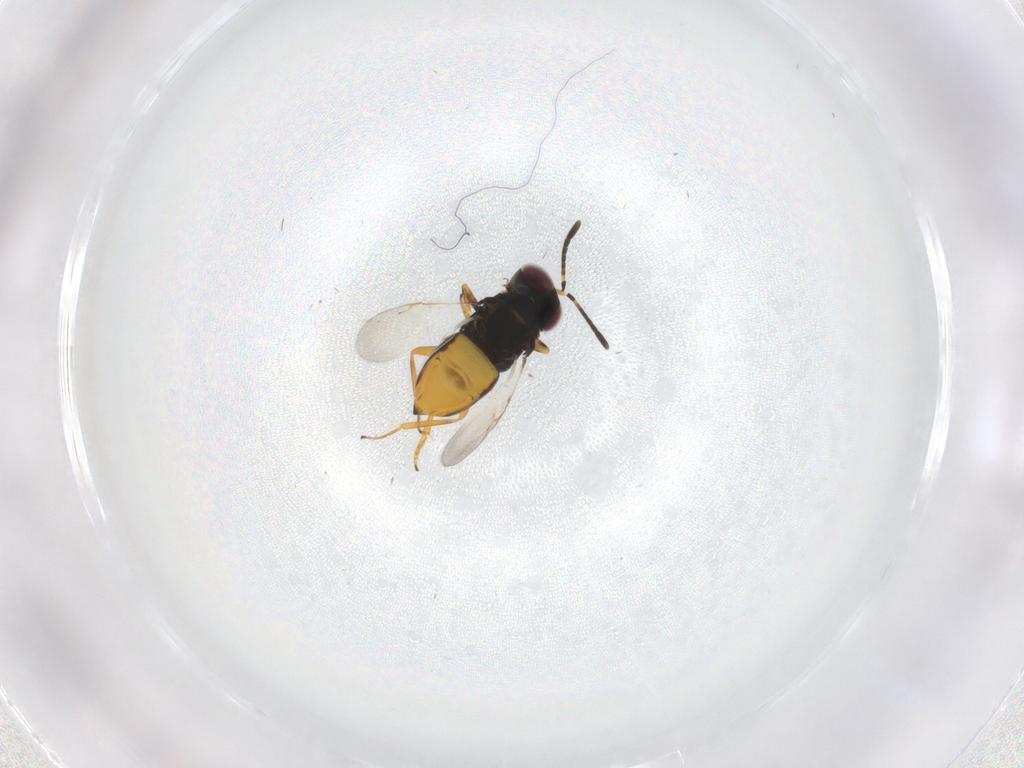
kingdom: Animalia
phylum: Arthropoda
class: Insecta
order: Hymenoptera
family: Encyrtidae
